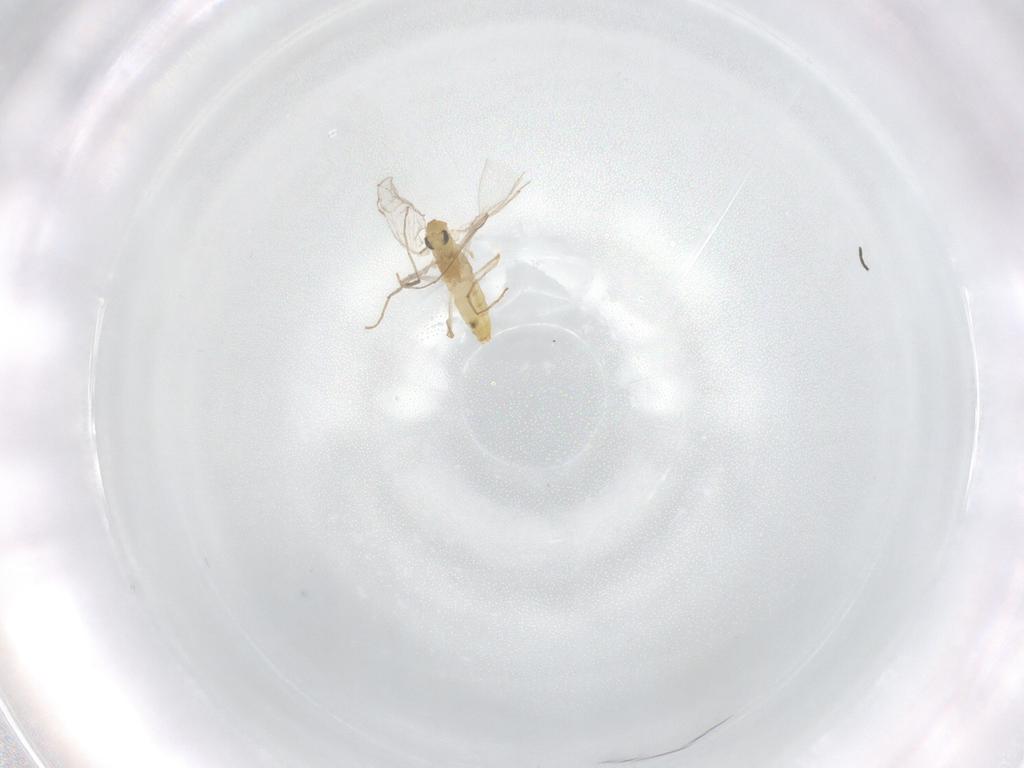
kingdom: Animalia
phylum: Arthropoda
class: Insecta
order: Diptera
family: Chironomidae
